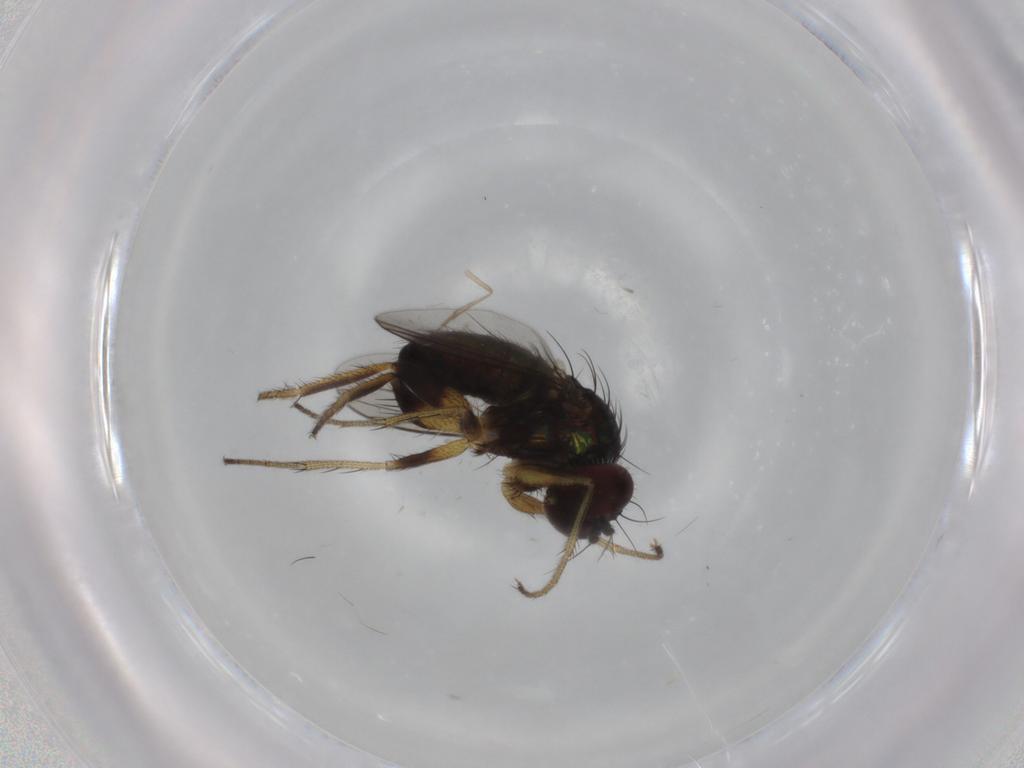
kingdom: Animalia
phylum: Arthropoda
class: Insecta
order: Diptera
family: Dolichopodidae
